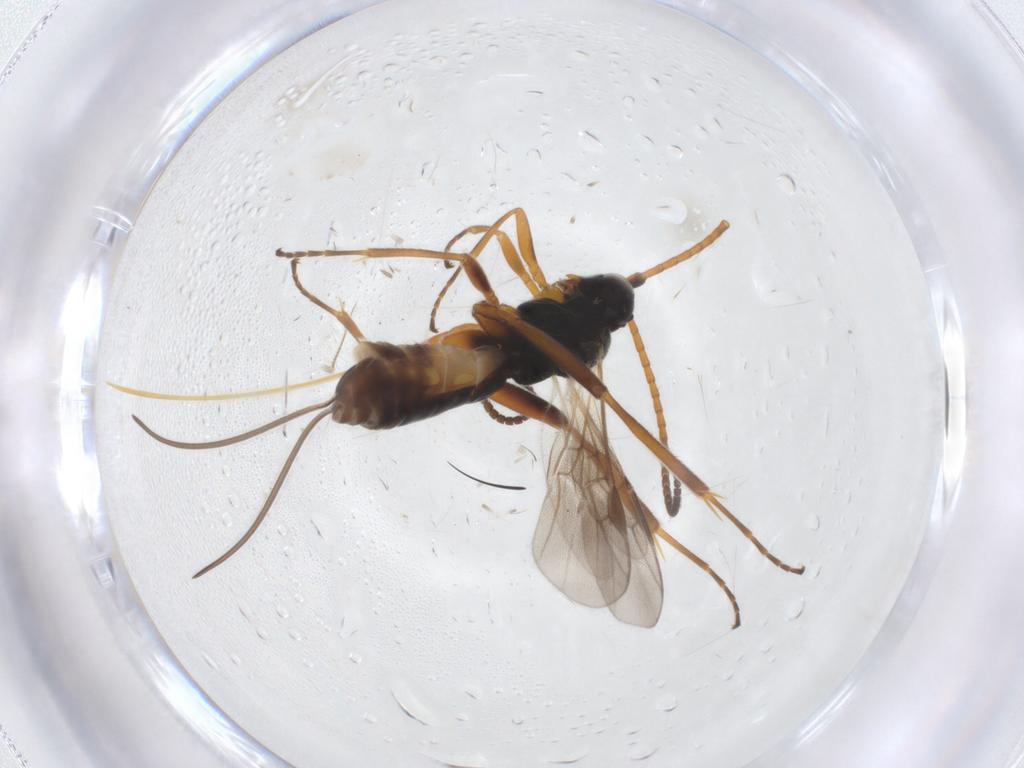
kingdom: Animalia
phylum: Arthropoda
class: Insecta
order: Hymenoptera
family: Braconidae
